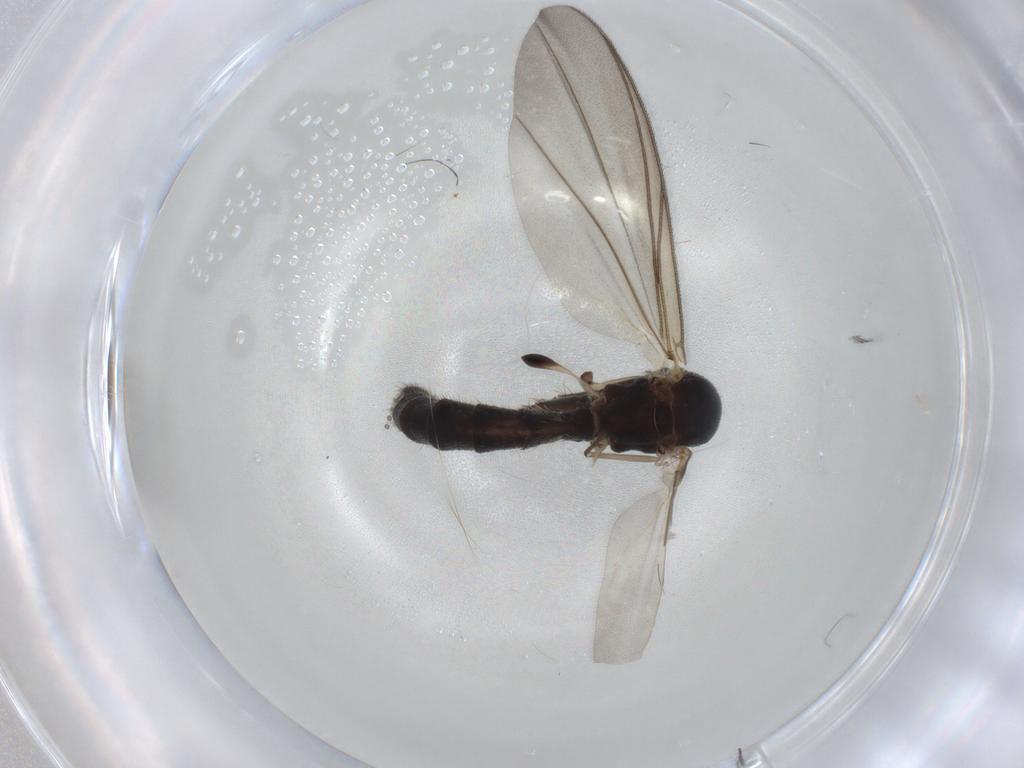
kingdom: Animalia
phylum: Arthropoda
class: Insecta
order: Diptera
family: Mycetophilidae
